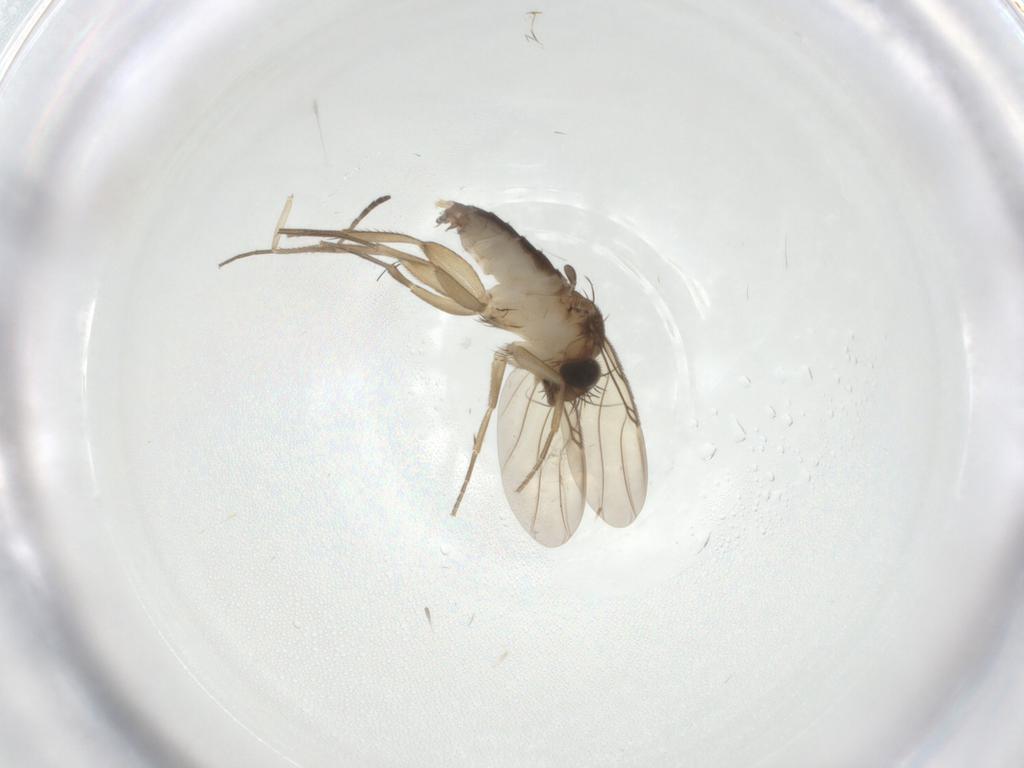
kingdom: Animalia
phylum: Arthropoda
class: Insecta
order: Diptera
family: Phoridae
